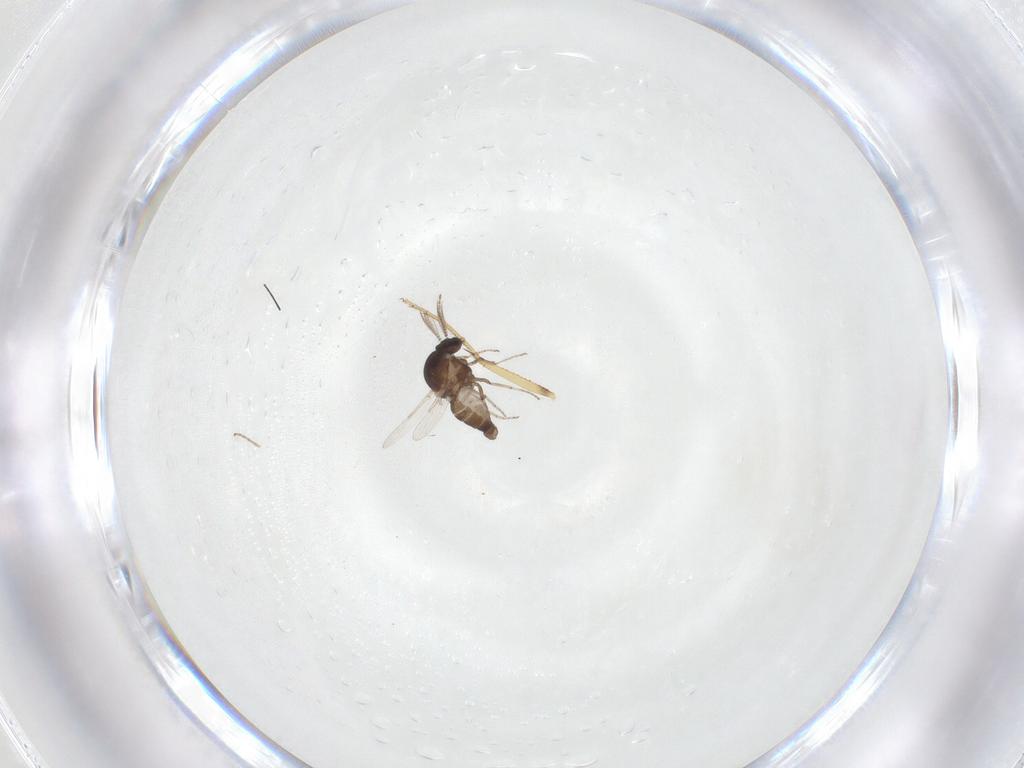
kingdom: Animalia
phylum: Arthropoda
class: Insecta
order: Diptera
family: Ceratopogonidae
